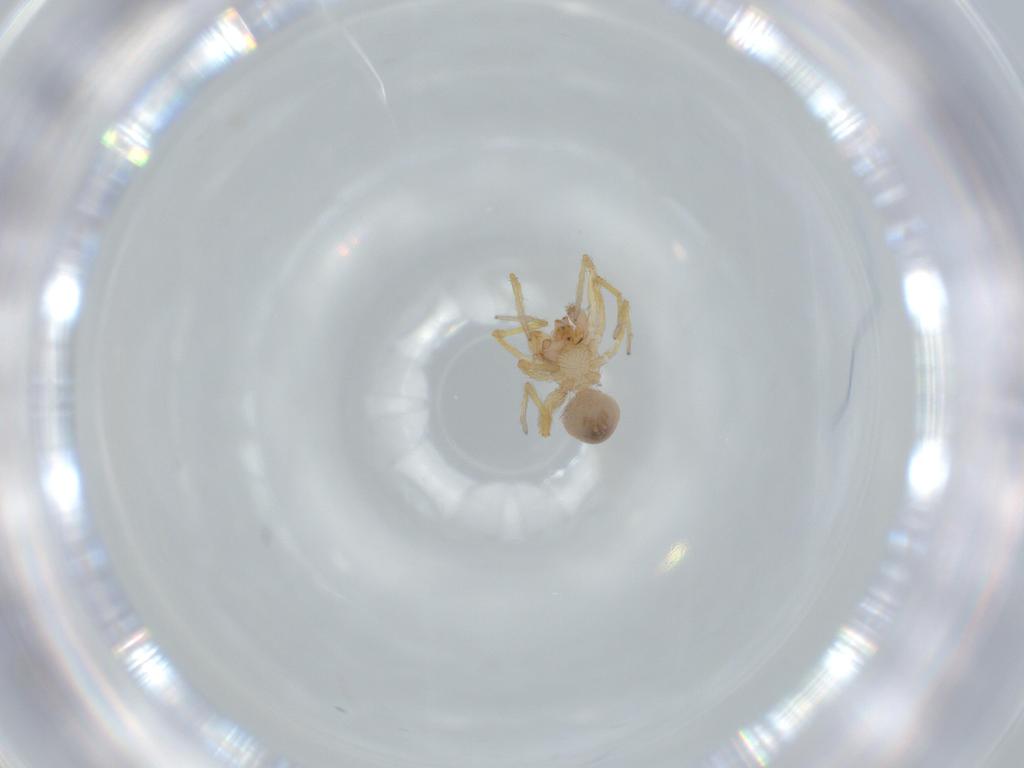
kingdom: Animalia
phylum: Arthropoda
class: Arachnida
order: Araneae
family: Oonopidae
